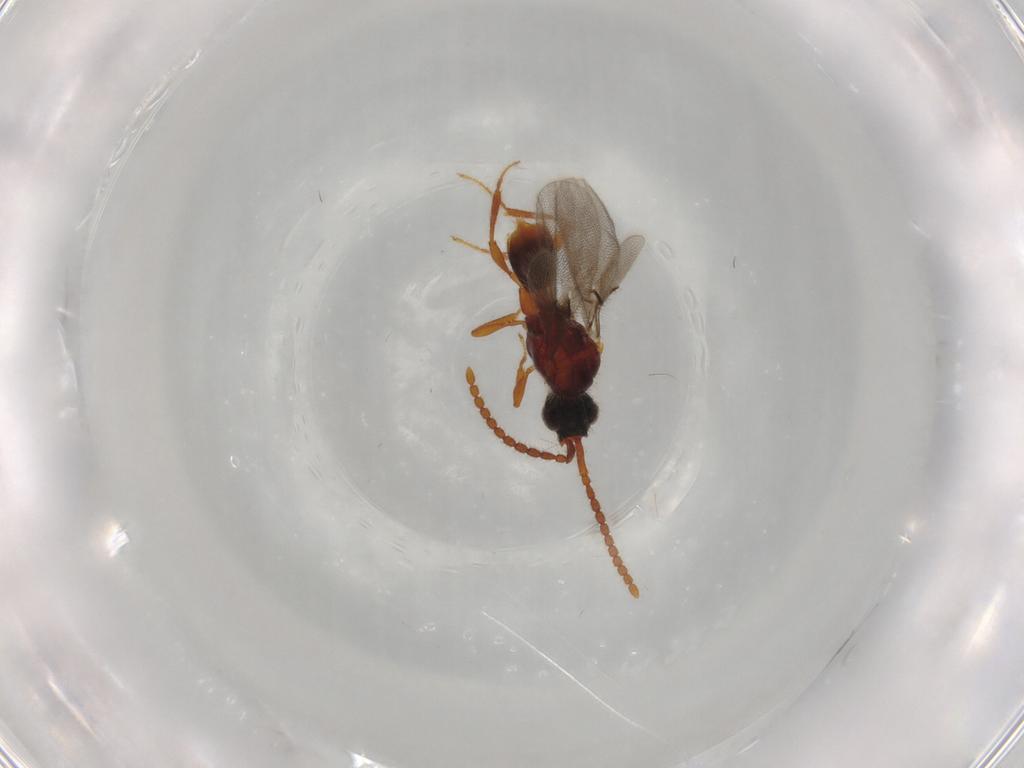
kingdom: Animalia
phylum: Arthropoda
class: Insecta
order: Hymenoptera
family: Diapriidae
